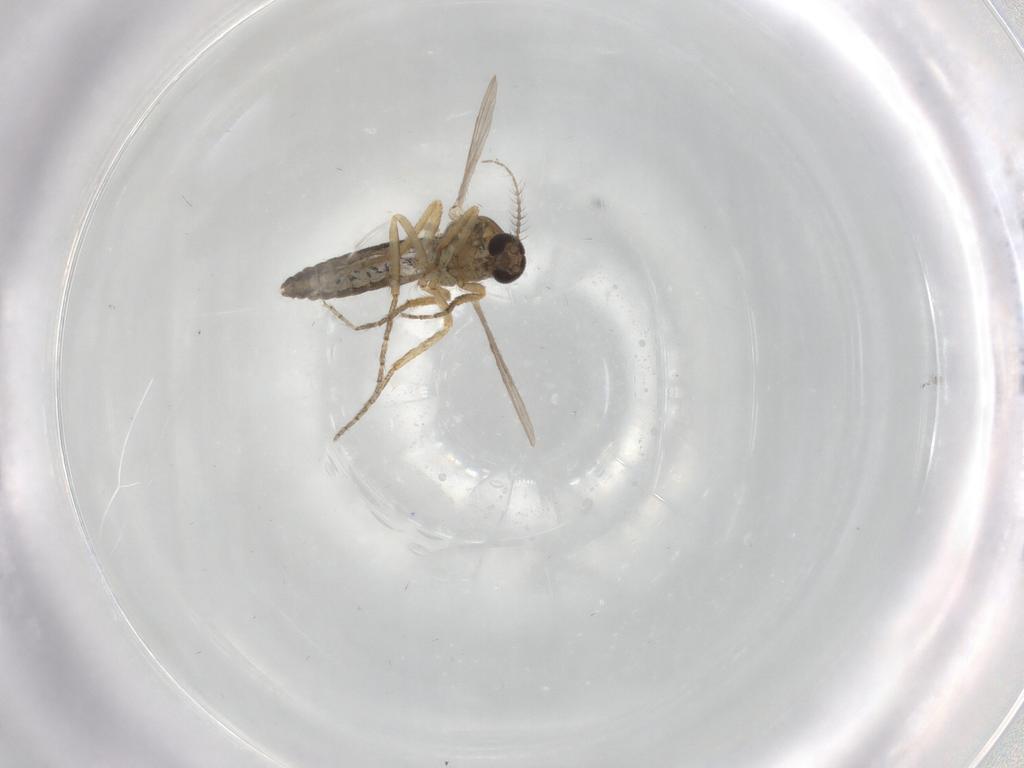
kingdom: Animalia
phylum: Arthropoda
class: Insecta
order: Diptera
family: Ceratopogonidae
